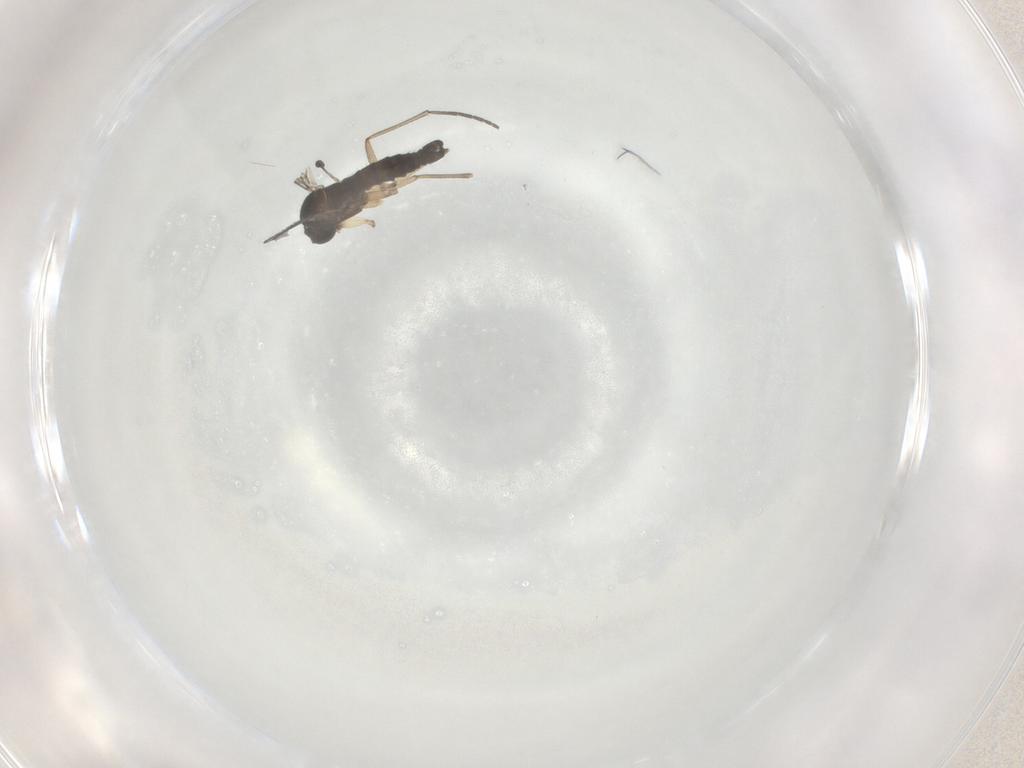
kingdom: Animalia
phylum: Arthropoda
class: Insecta
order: Diptera
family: Sciaridae
